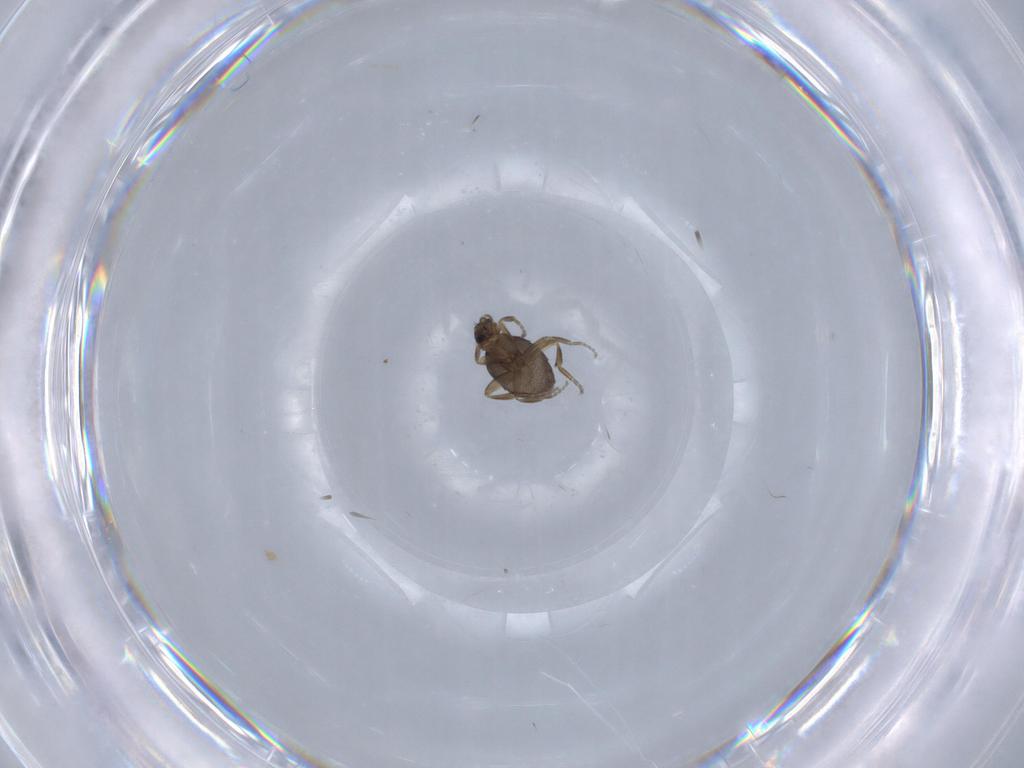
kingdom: Animalia
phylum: Arthropoda
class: Insecta
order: Diptera
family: Phoridae
